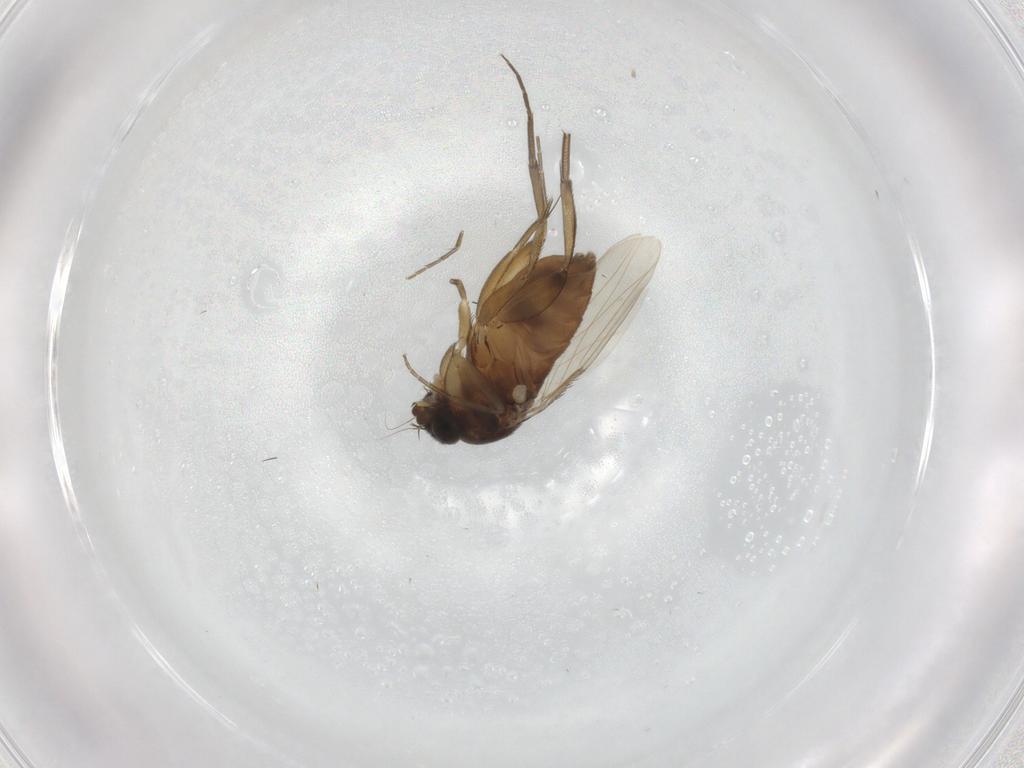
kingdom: Animalia
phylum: Arthropoda
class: Insecta
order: Diptera
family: Phoridae
